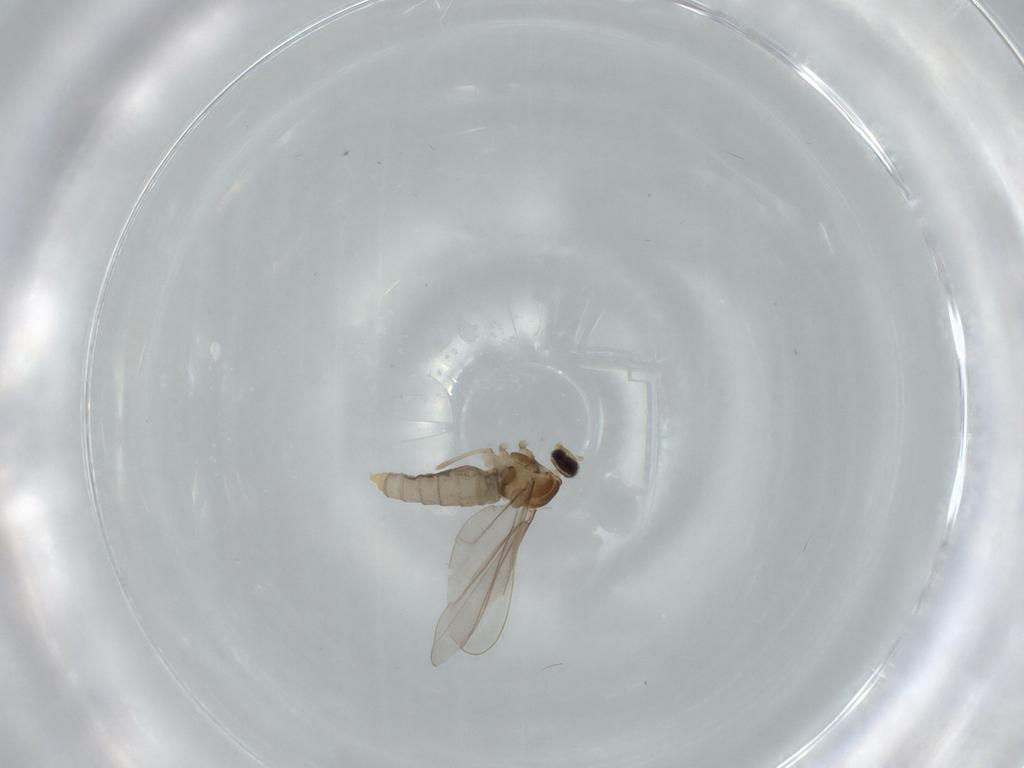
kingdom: Animalia
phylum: Arthropoda
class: Insecta
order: Diptera
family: Cecidomyiidae
